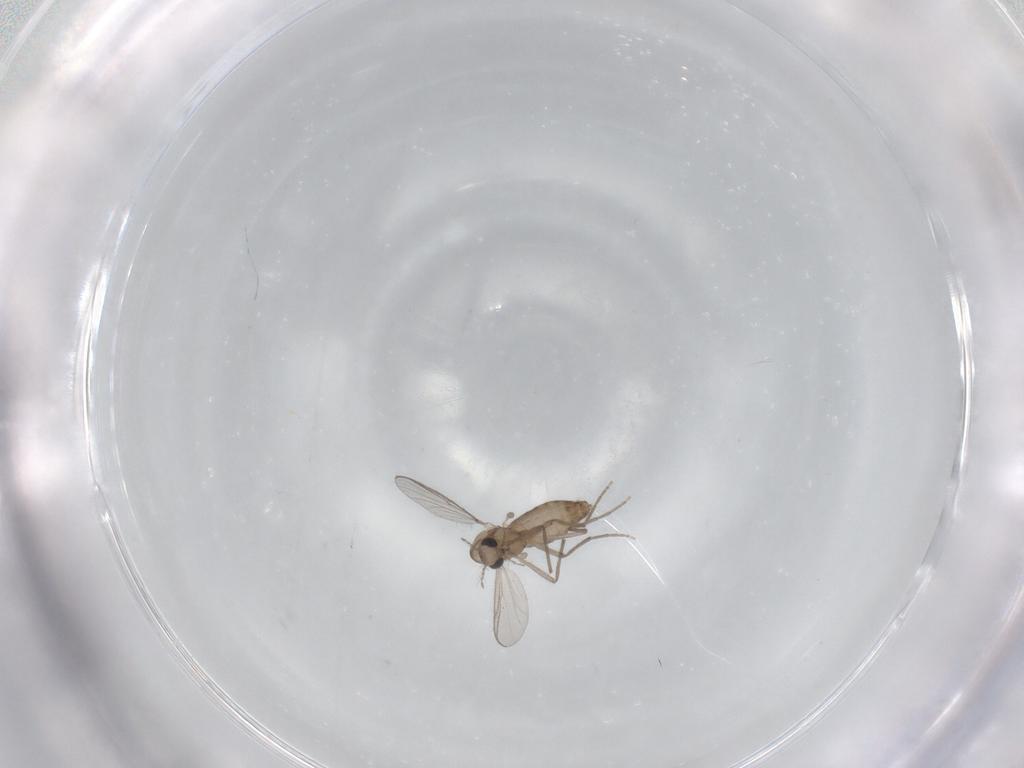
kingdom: Animalia
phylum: Arthropoda
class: Insecta
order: Diptera
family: Chironomidae
